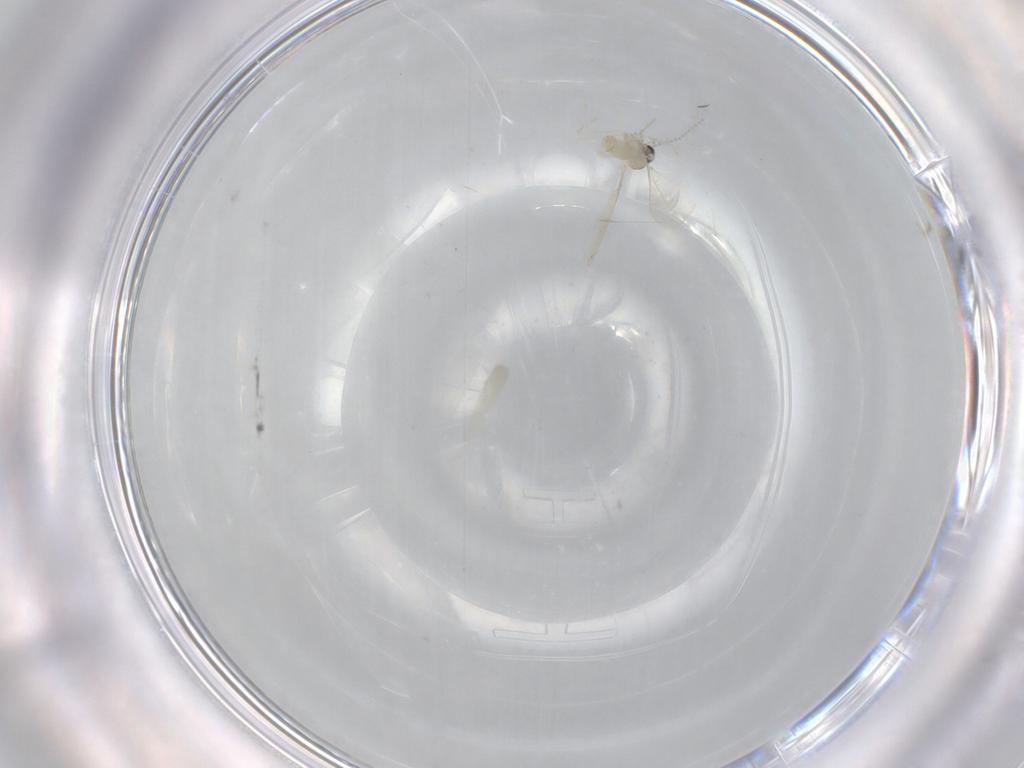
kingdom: Animalia
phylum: Arthropoda
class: Insecta
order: Diptera
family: Cecidomyiidae
